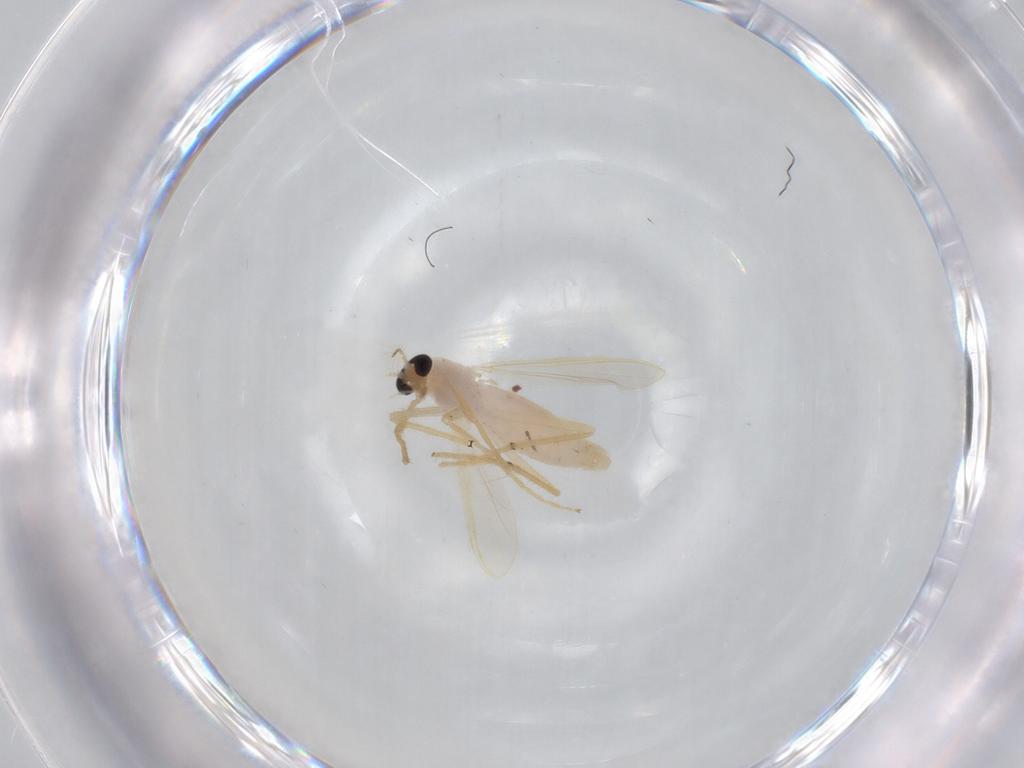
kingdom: Animalia
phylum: Arthropoda
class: Insecta
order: Diptera
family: Chironomidae
